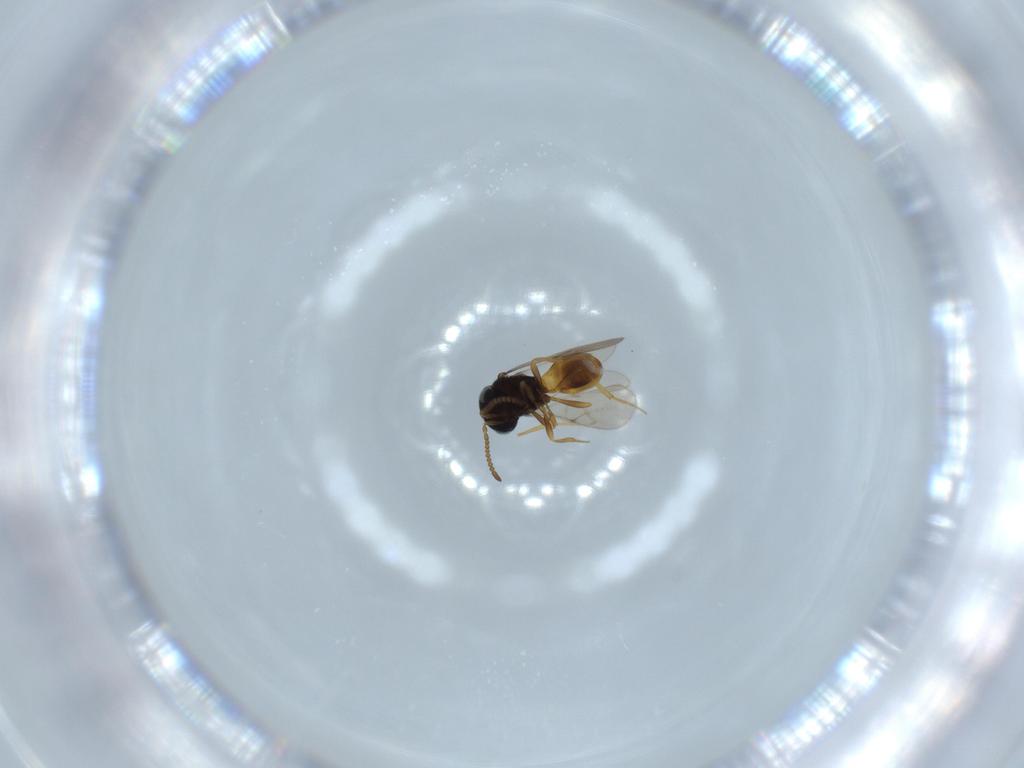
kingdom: Animalia
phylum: Arthropoda
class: Insecta
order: Hymenoptera
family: Scelionidae
